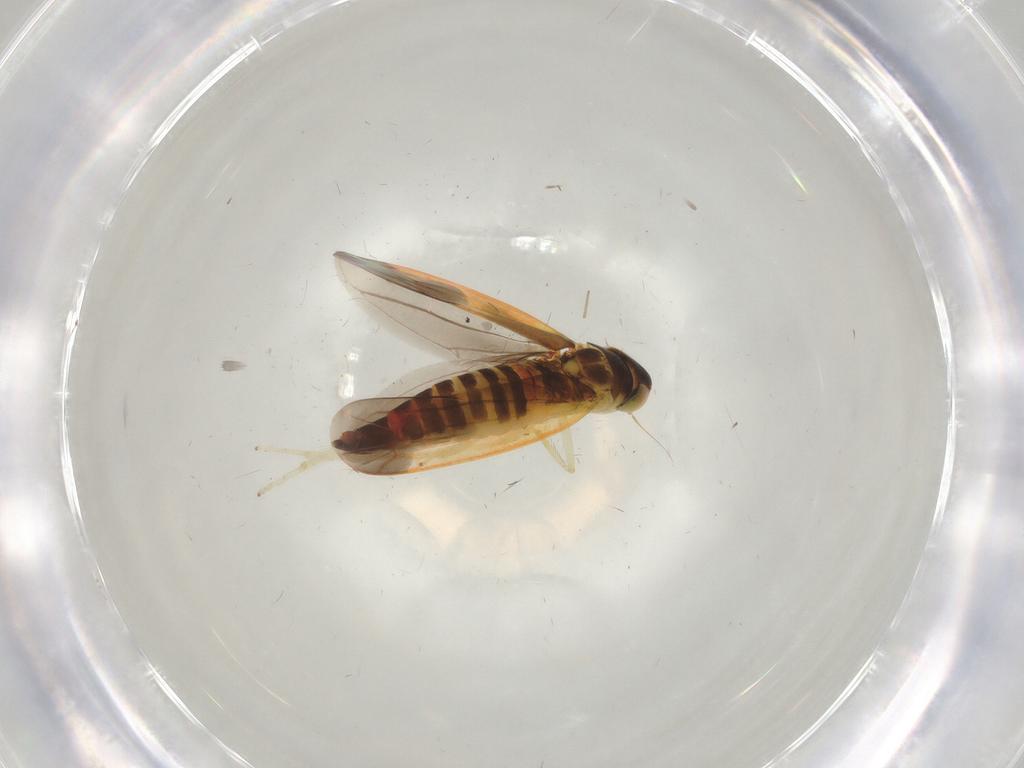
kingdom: Animalia
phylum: Arthropoda
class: Insecta
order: Hemiptera
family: Cicadellidae
